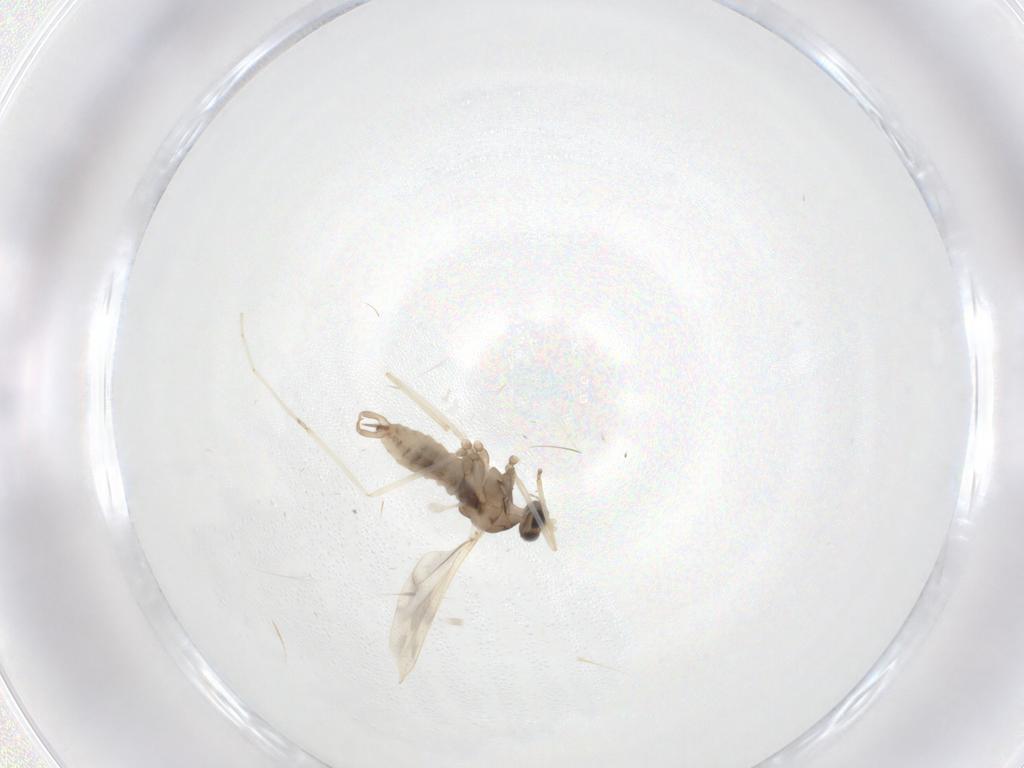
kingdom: Animalia
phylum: Arthropoda
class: Insecta
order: Diptera
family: Cecidomyiidae
